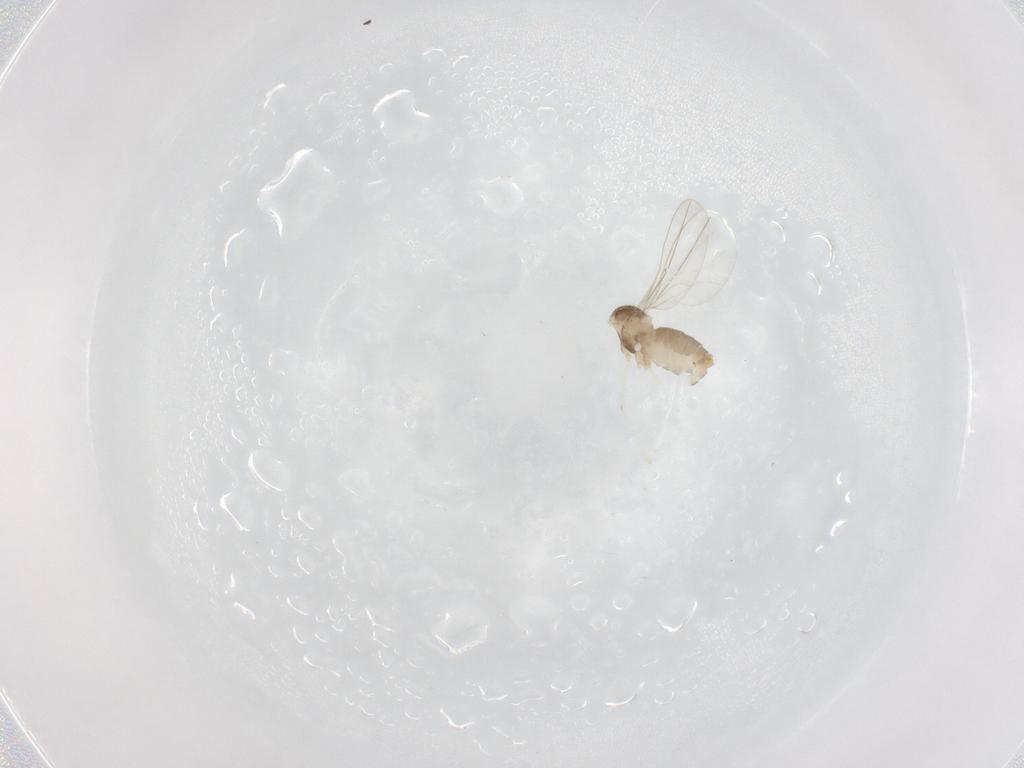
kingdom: Animalia
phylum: Arthropoda
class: Insecta
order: Diptera
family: Cecidomyiidae
